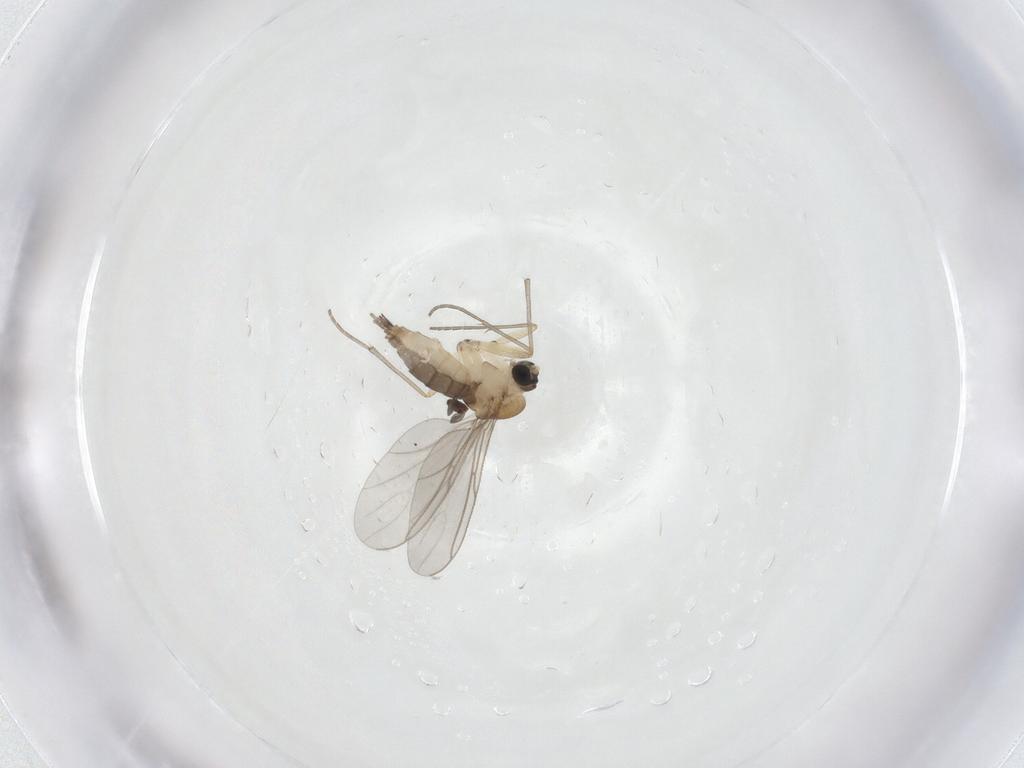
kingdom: Animalia
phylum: Arthropoda
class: Insecta
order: Diptera
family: Sciaridae
